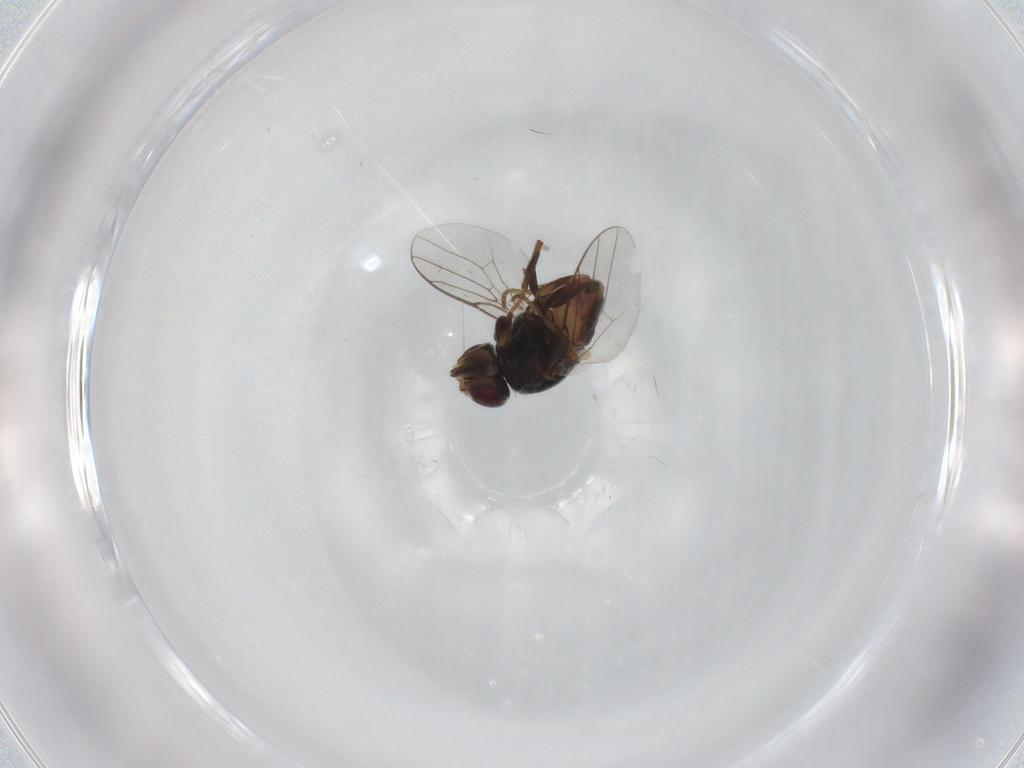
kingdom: Animalia
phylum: Arthropoda
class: Insecta
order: Diptera
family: Chloropidae
